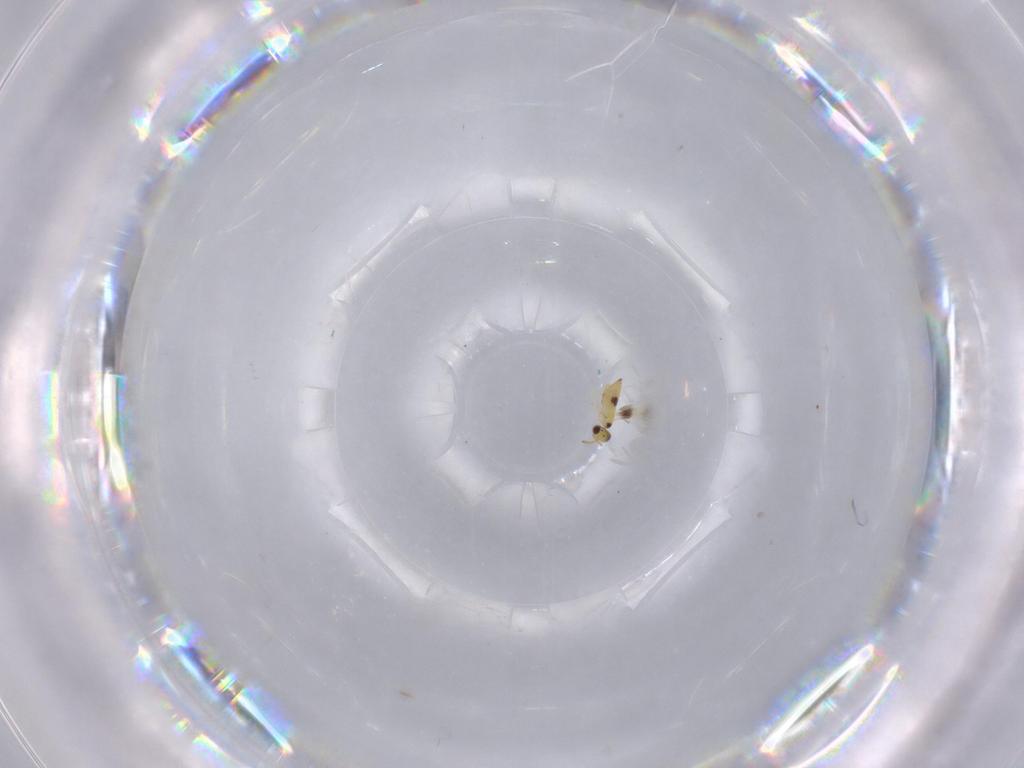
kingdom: Animalia
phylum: Arthropoda
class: Insecta
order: Hymenoptera
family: Signiphoridae
